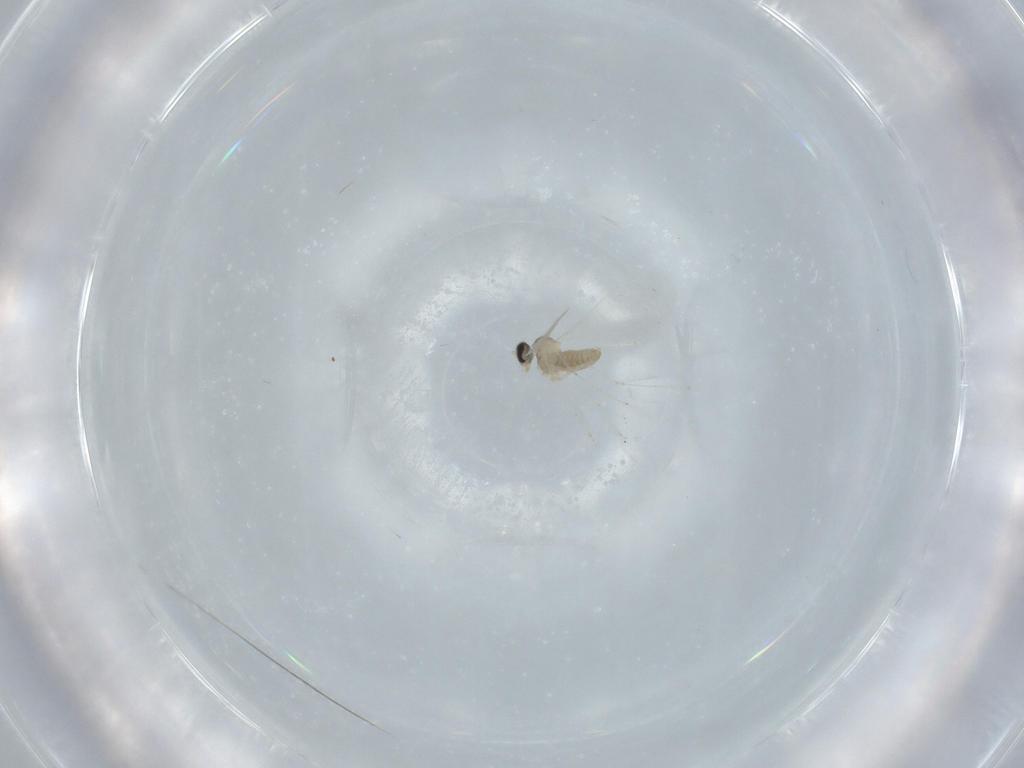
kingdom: Animalia
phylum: Arthropoda
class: Insecta
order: Diptera
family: Cecidomyiidae
